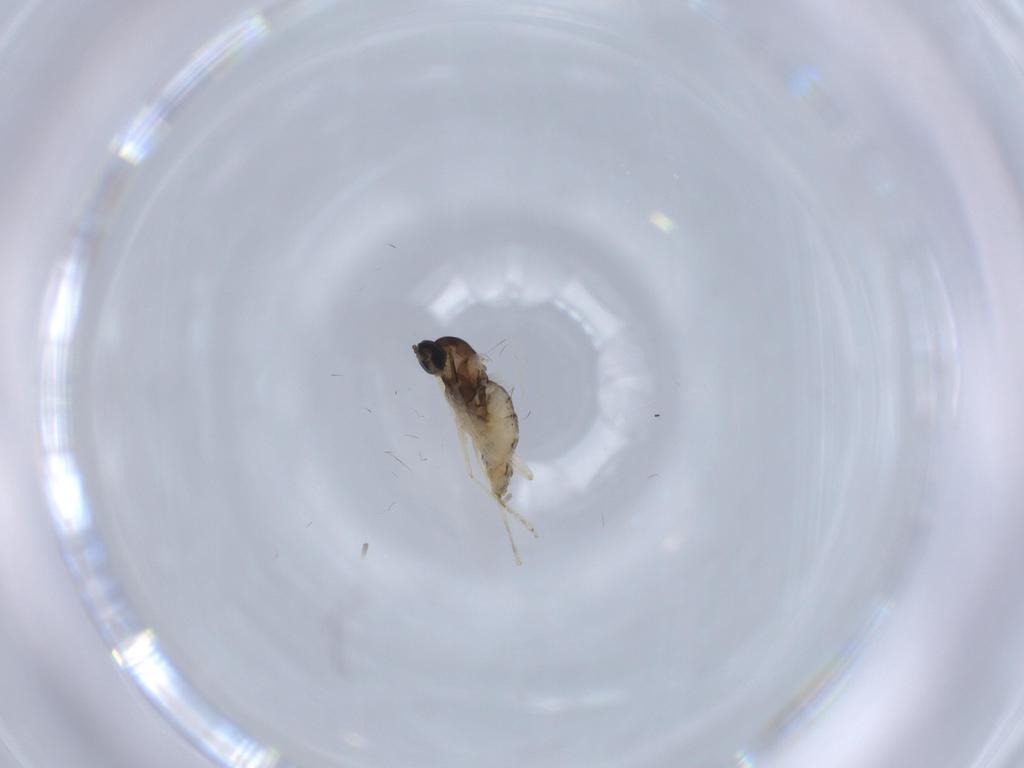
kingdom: Animalia
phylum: Arthropoda
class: Insecta
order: Diptera
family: Cecidomyiidae
